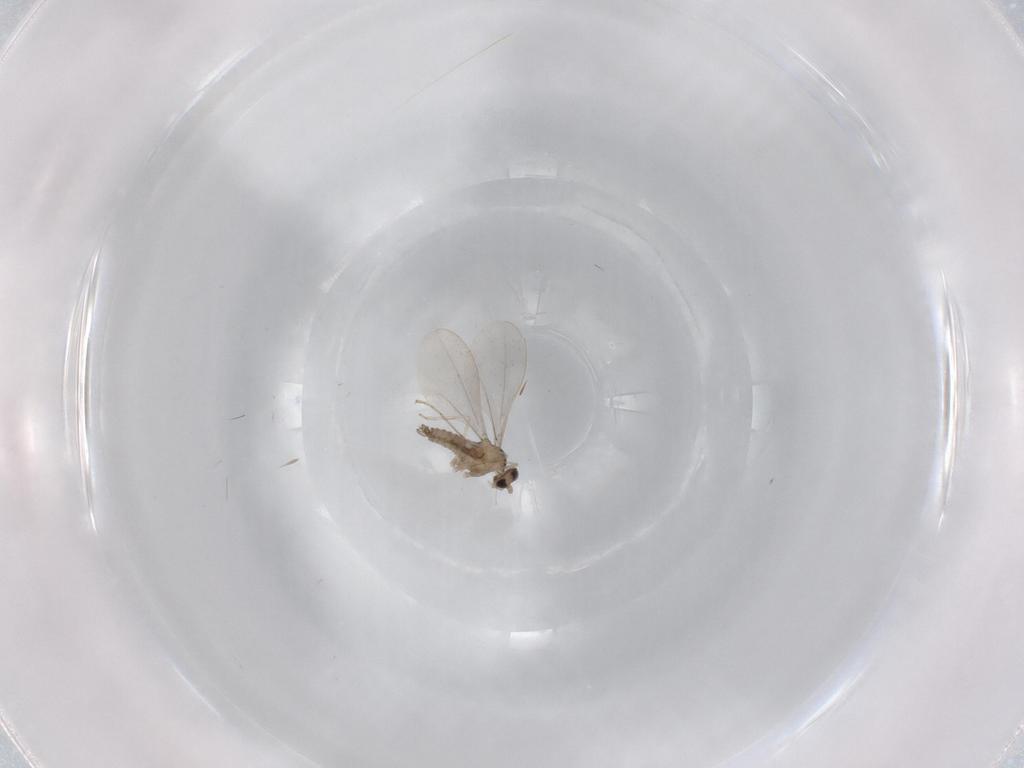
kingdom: Animalia
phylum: Arthropoda
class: Insecta
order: Diptera
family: Cecidomyiidae
